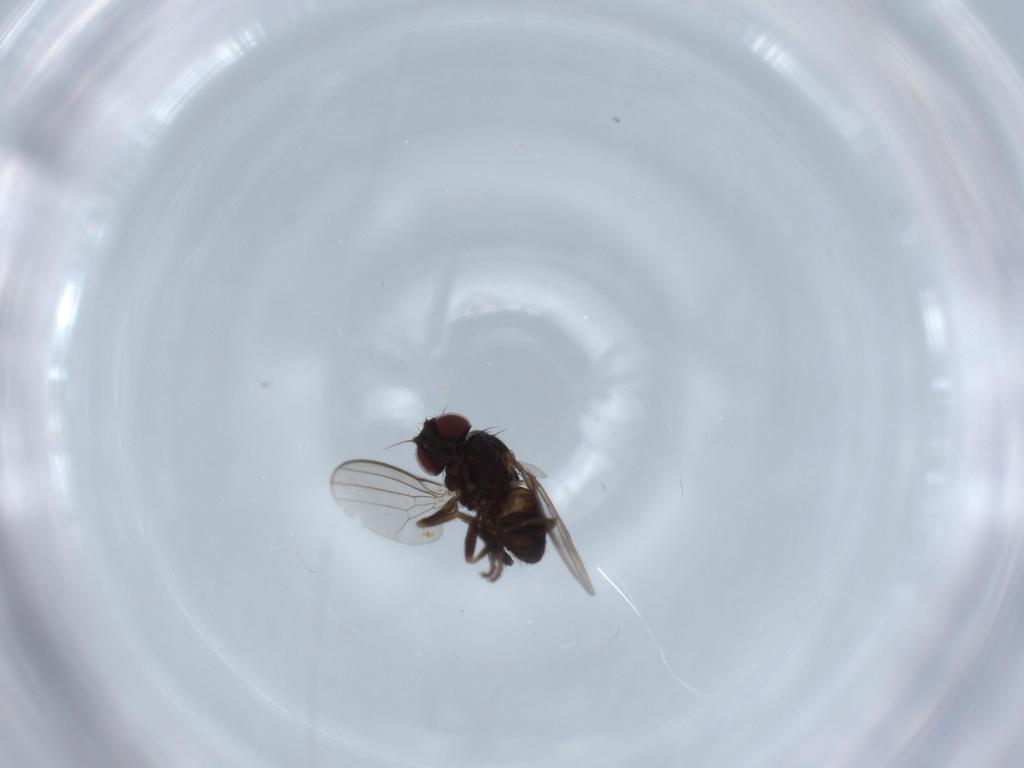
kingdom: Animalia
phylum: Arthropoda
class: Insecta
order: Diptera
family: Milichiidae
